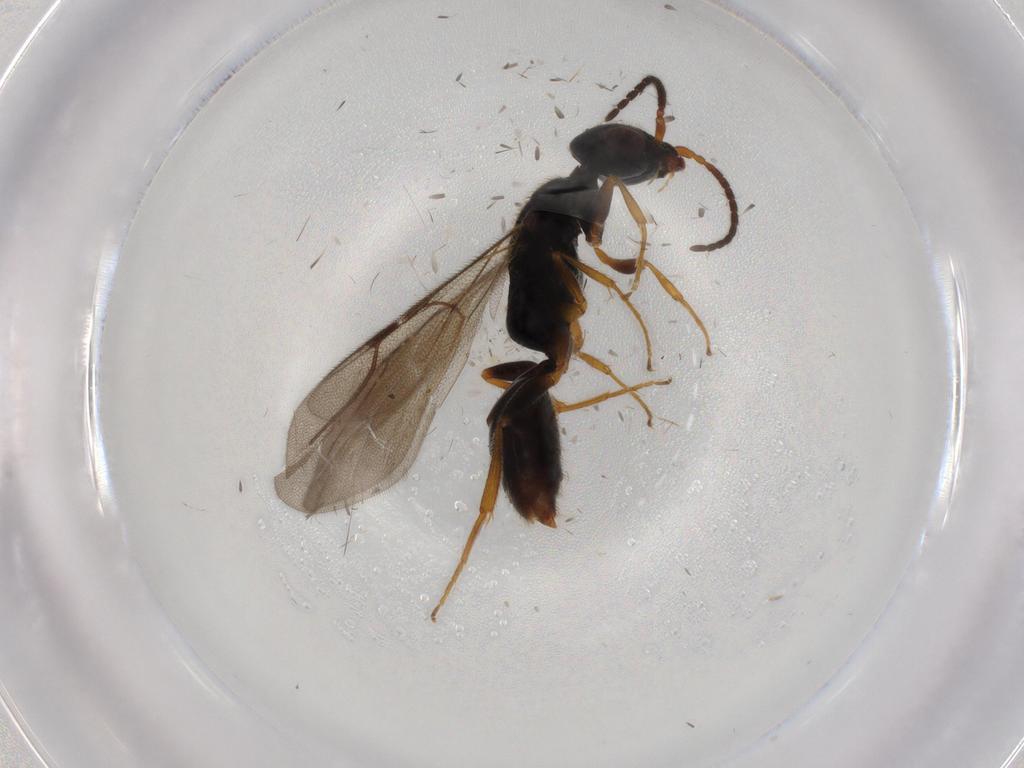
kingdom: Animalia
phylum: Arthropoda
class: Insecta
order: Hymenoptera
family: Bethylidae
